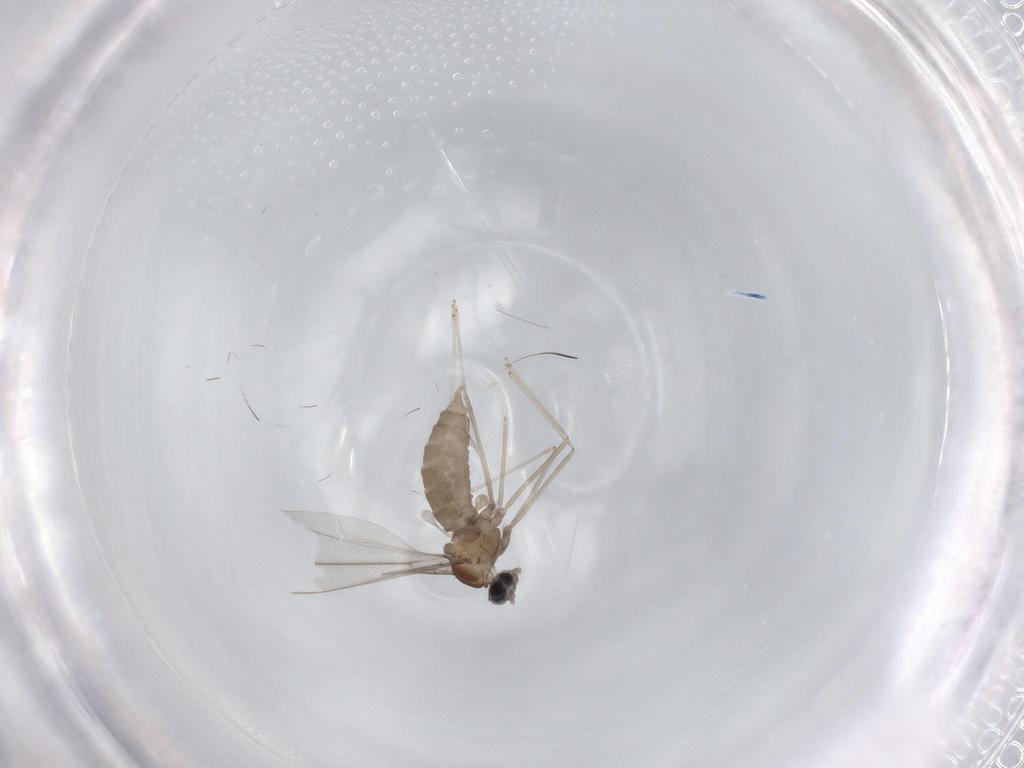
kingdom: Animalia
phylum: Arthropoda
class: Insecta
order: Diptera
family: Cecidomyiidae
